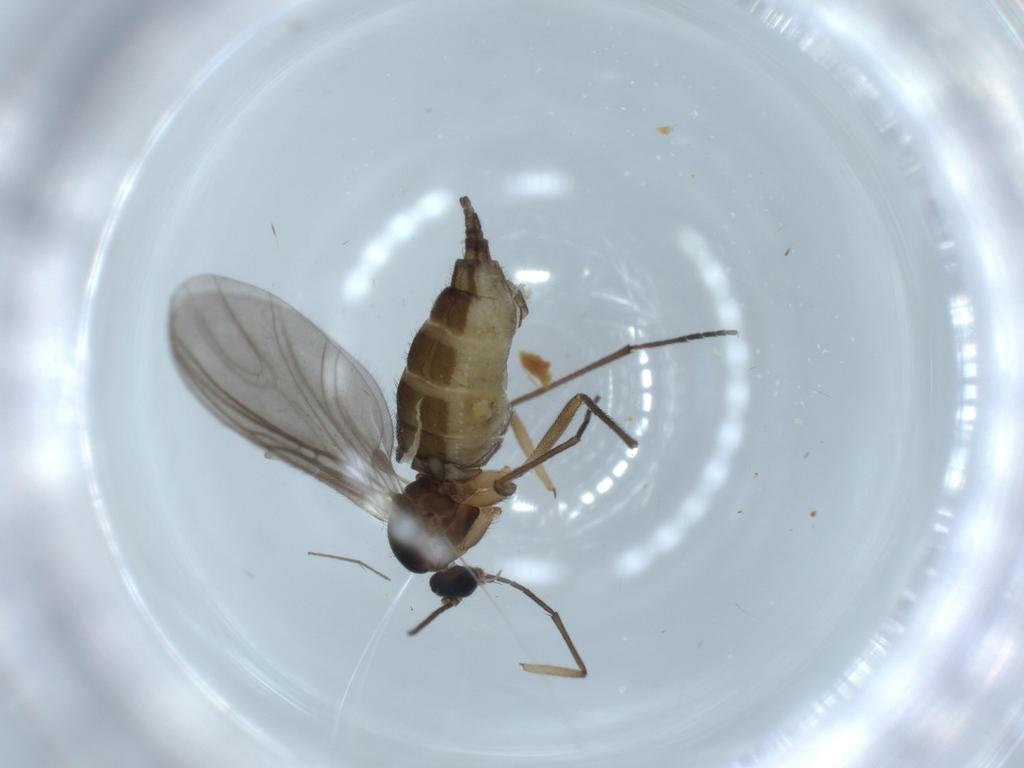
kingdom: Animalia
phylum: Arthropoda
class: Insecta
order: Diptera
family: Sciaridae
